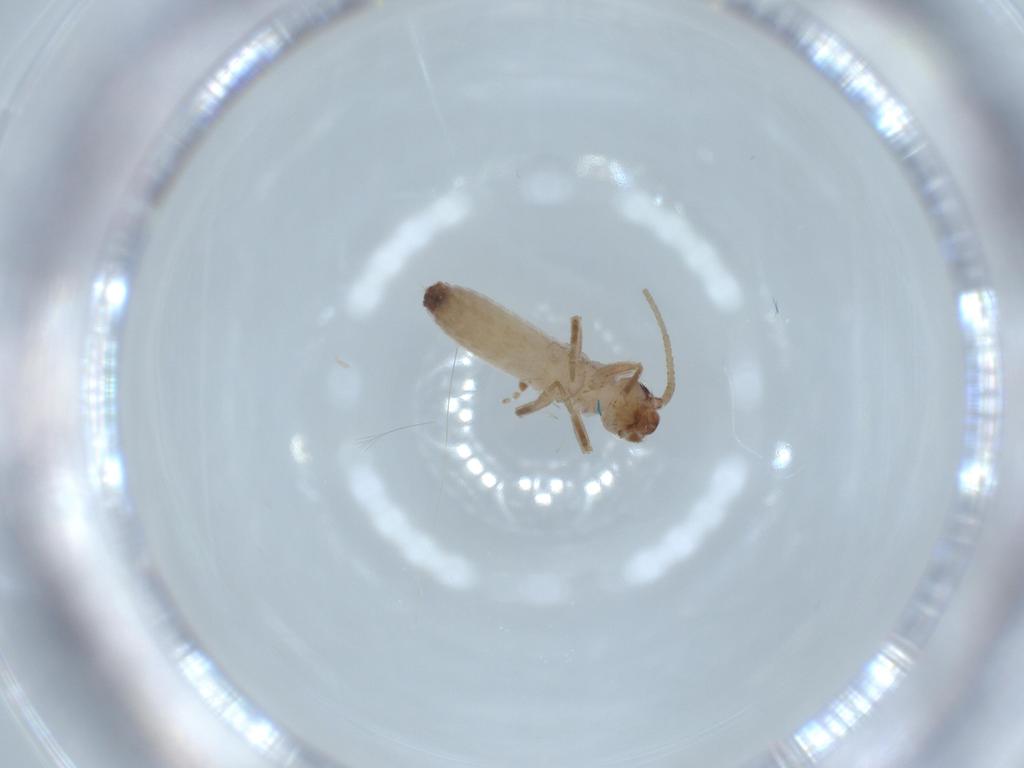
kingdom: Animalia
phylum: Arthropoda
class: Insecta
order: Orthoptera
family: Mogoplistidae
